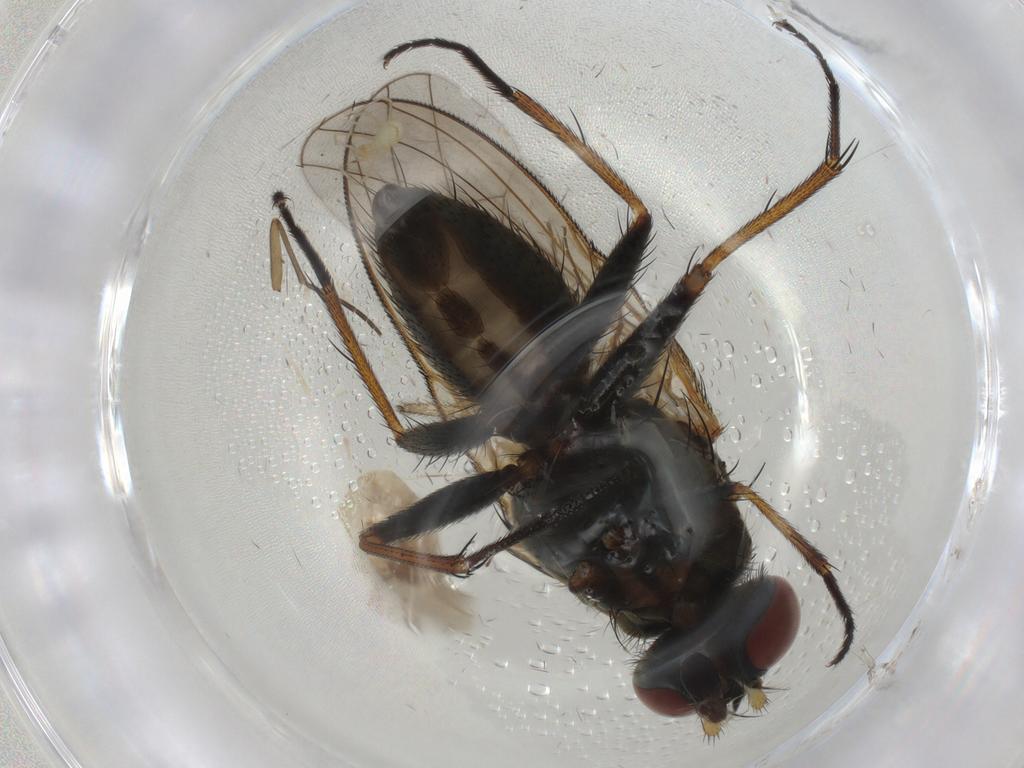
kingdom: Animalia
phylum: Arthropoda
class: Insecta
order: Diptera
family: Muscidae
